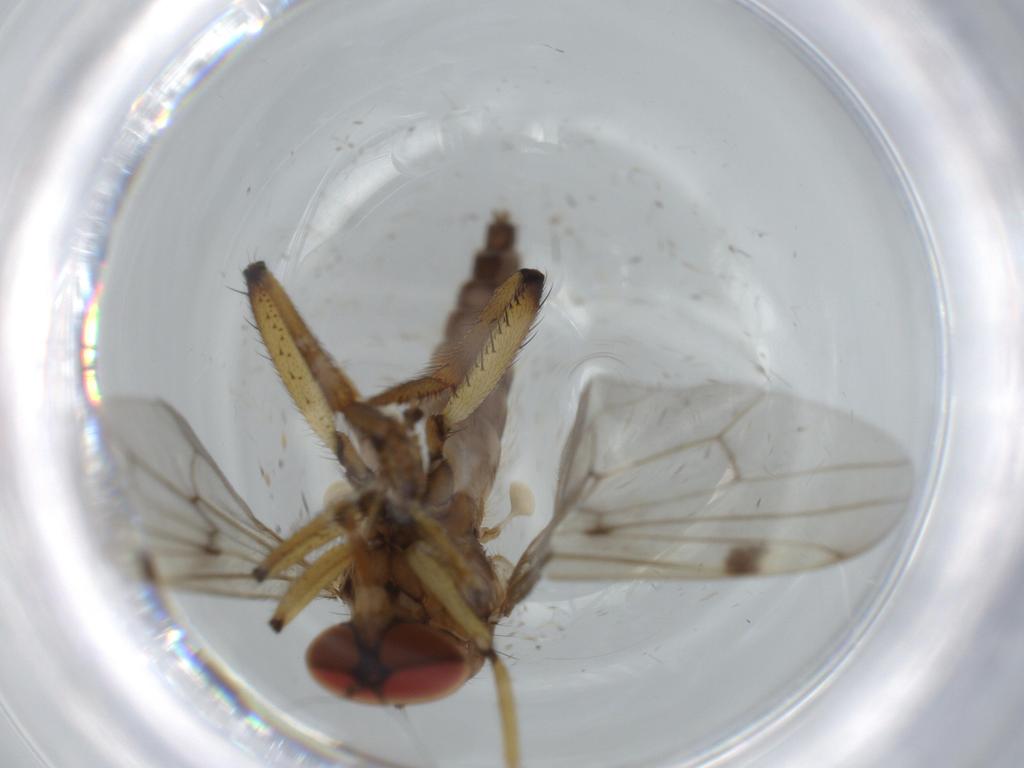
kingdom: Animalia
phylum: Arthropoda
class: Insecta
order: Diptera
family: Hybotidae
